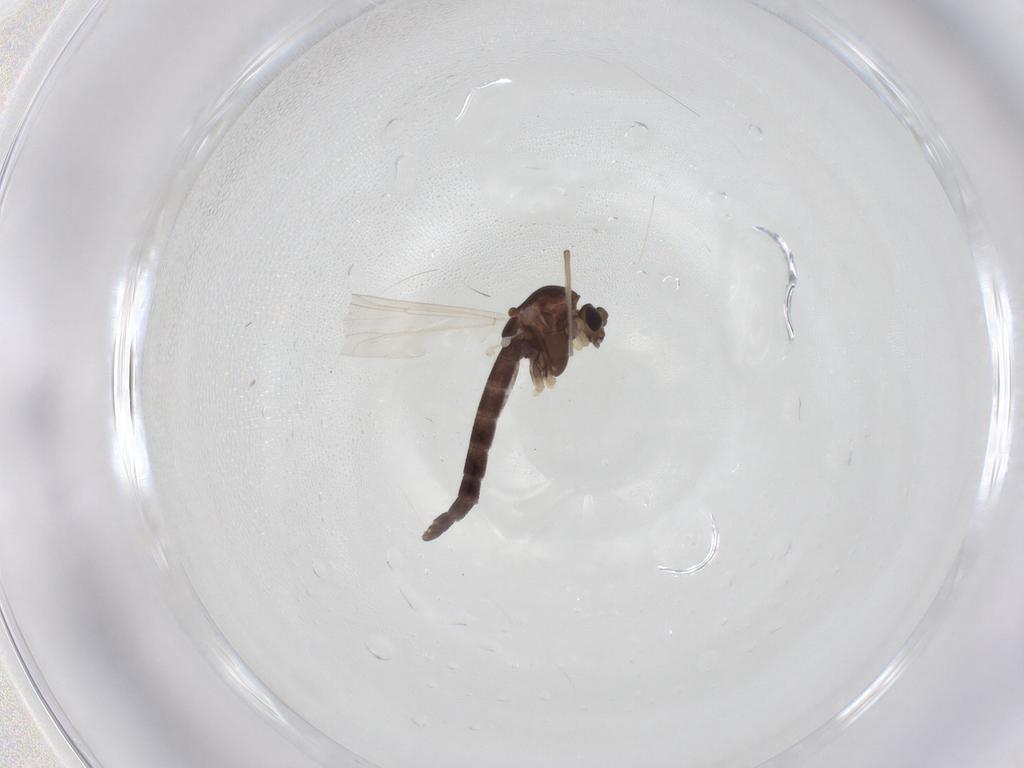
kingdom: Animalia
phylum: Arthropoda
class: Insecta
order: Diptera
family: Chironomidae
